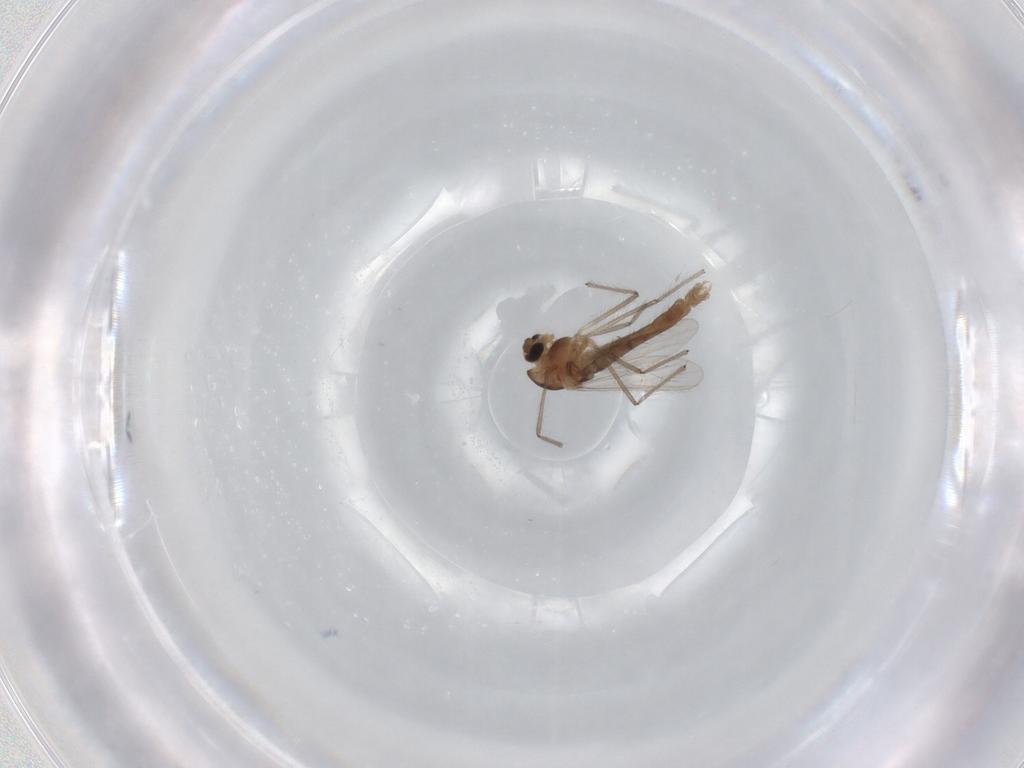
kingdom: Animalia
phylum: Arthropoda
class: Insecta
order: Diptera
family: Chironomidae
